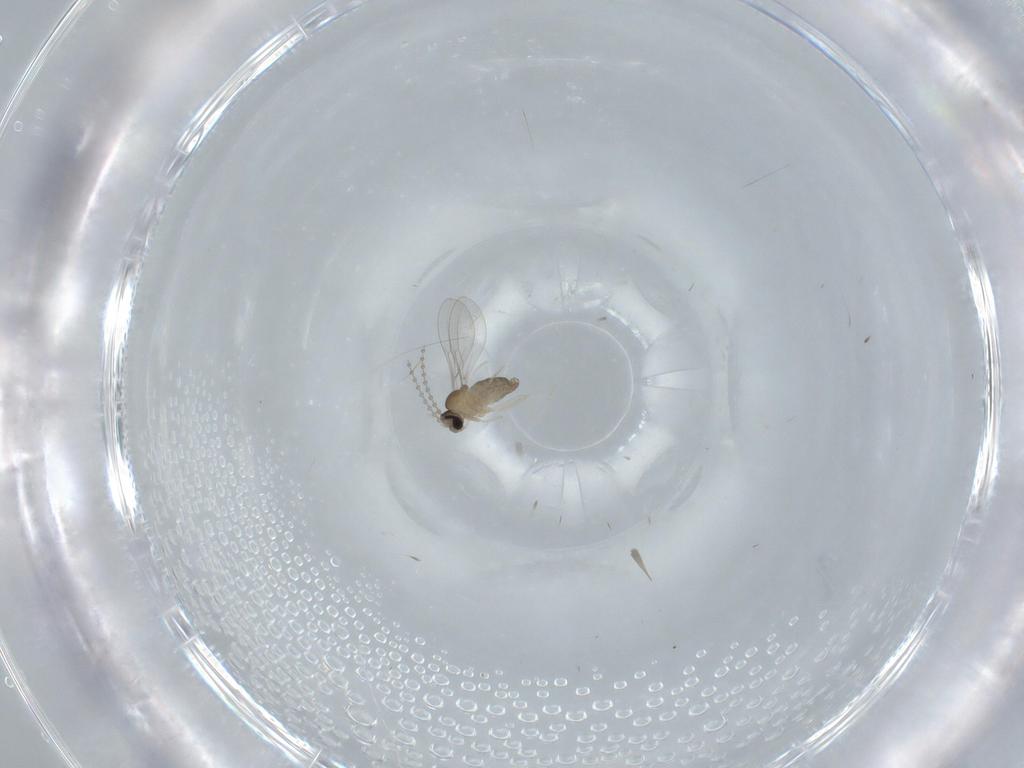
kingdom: Animalia
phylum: Arthropoda
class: Insecta
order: Diptera
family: Cecidomyiidae
